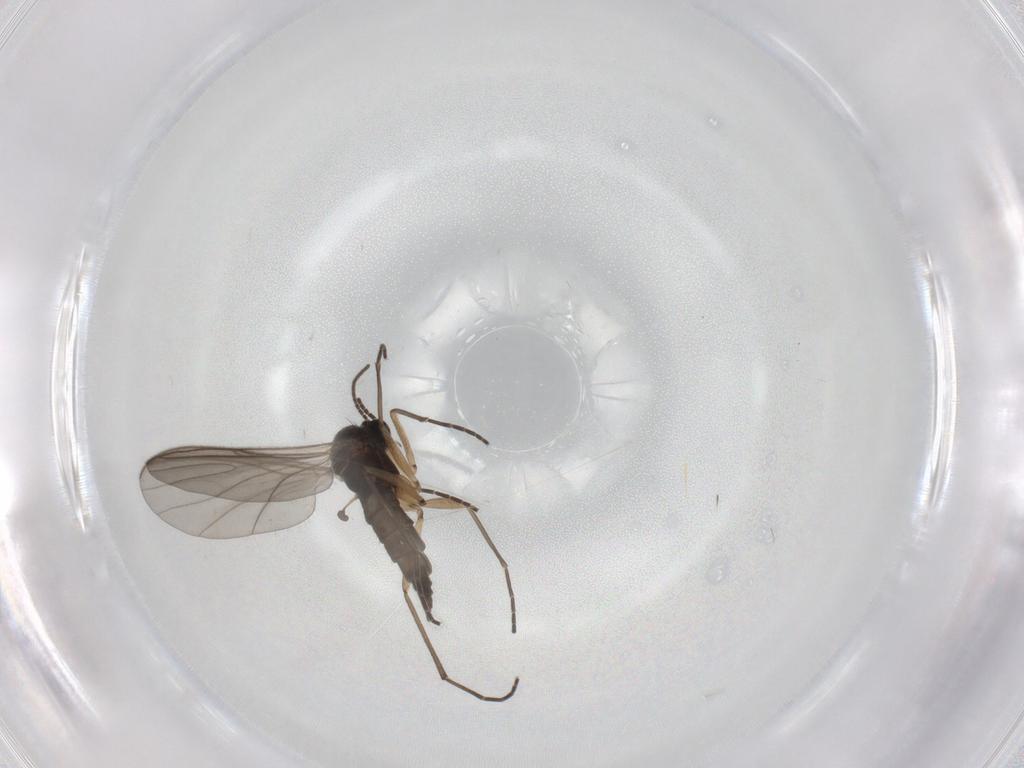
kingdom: Animalia
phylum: Arthropoda
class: Insecta
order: Diptera
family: Sciaridae
